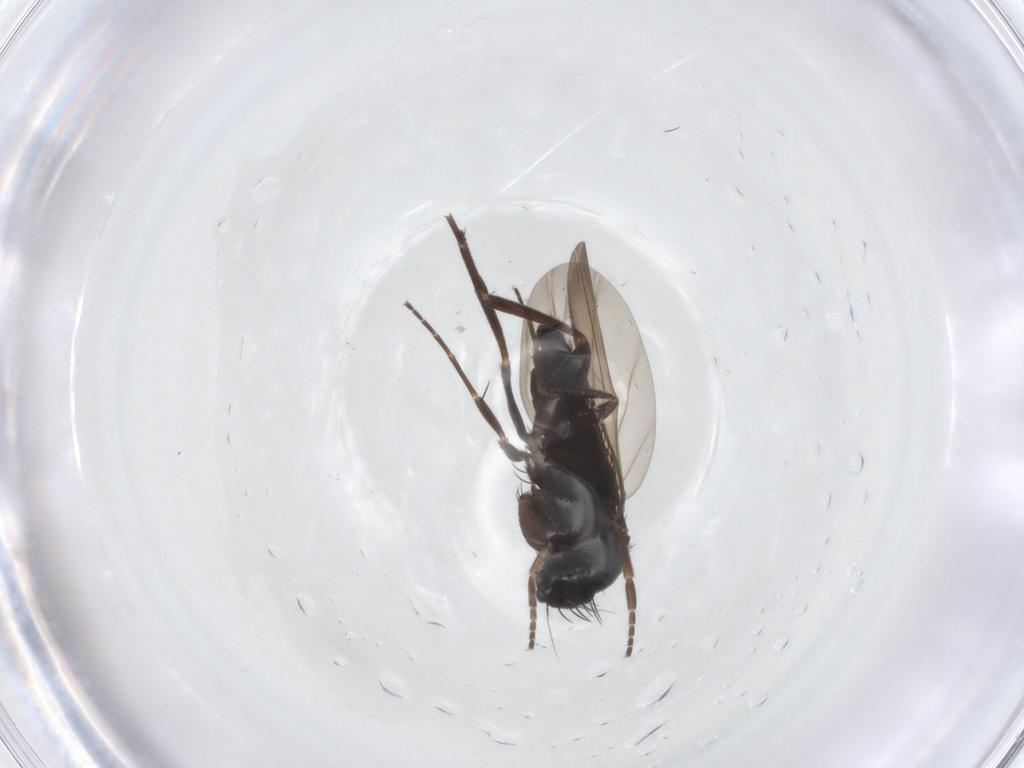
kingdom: Animalia
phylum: Arthropoda
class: Insecta
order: Diptera
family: Phoridae
